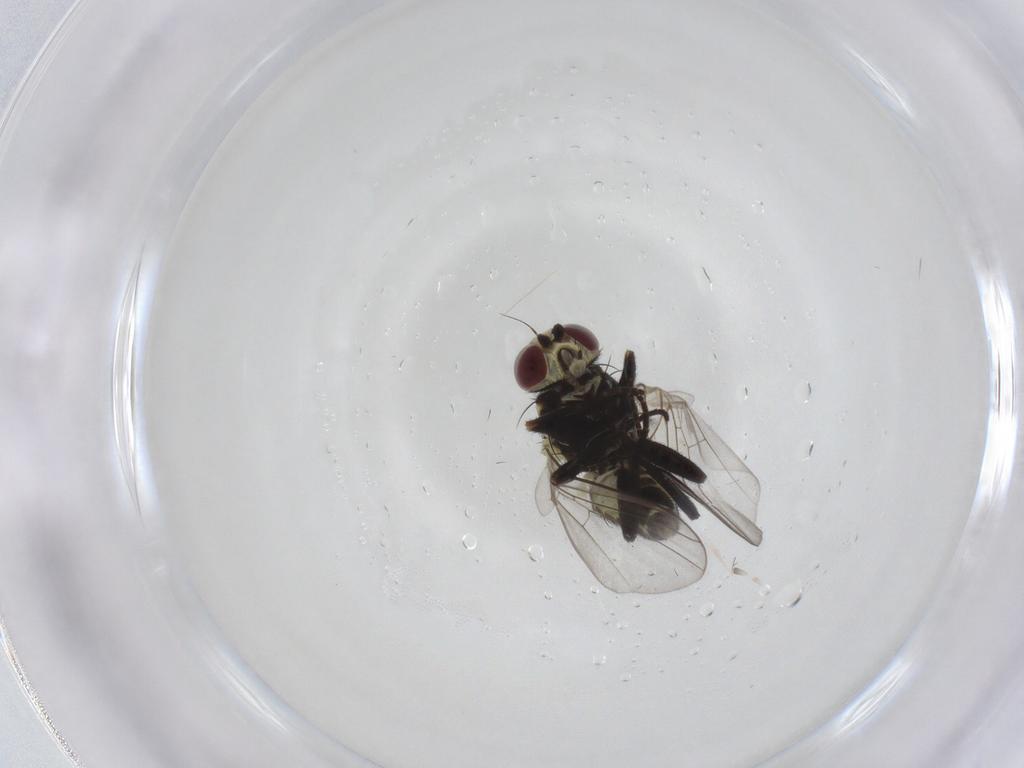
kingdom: Animalia
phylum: Arthropoda
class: Insecta
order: Diptera
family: Agromyzidae
